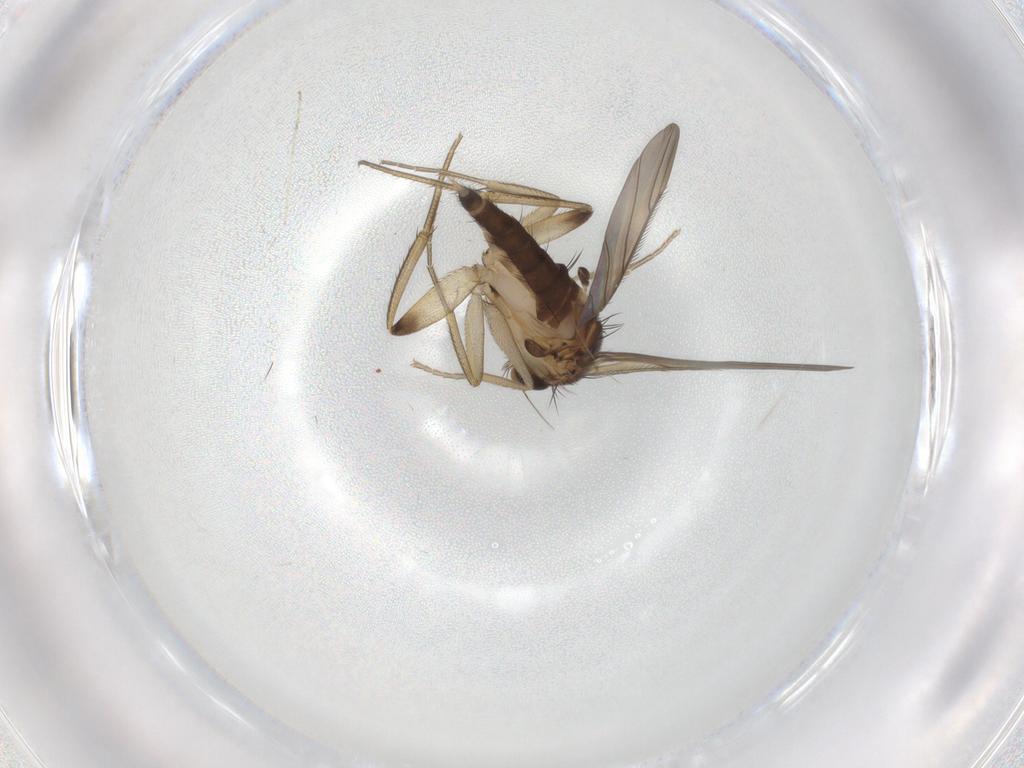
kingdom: Animalia
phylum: Arthropoda
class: Insecta
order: Diptera
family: Phoridae
